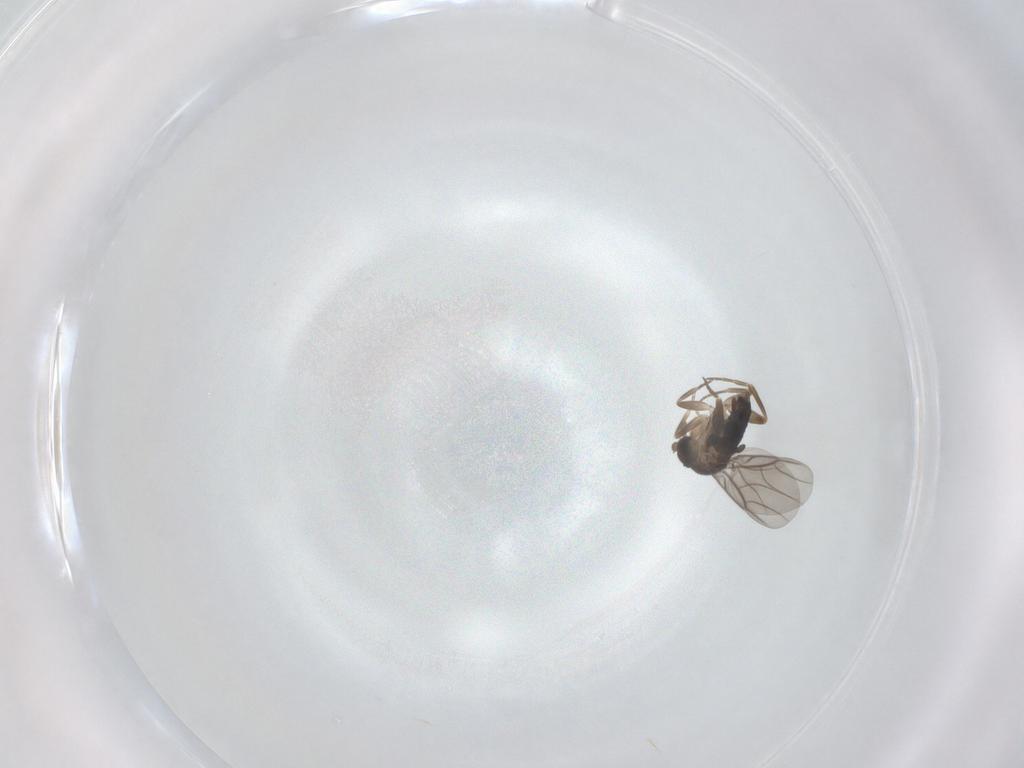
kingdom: Animalia
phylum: Arthropoda
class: Insecta
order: Diptera
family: Phoridae
